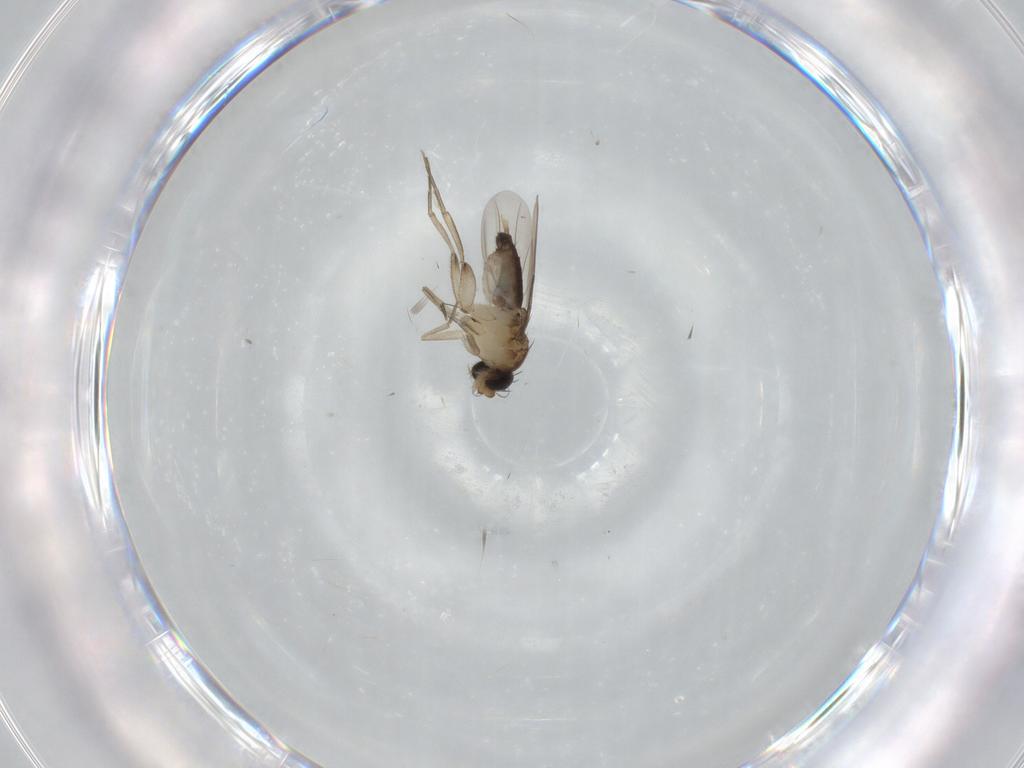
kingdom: Animalia
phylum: Arthropoda
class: Insecta
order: Diptera
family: Phoridae
